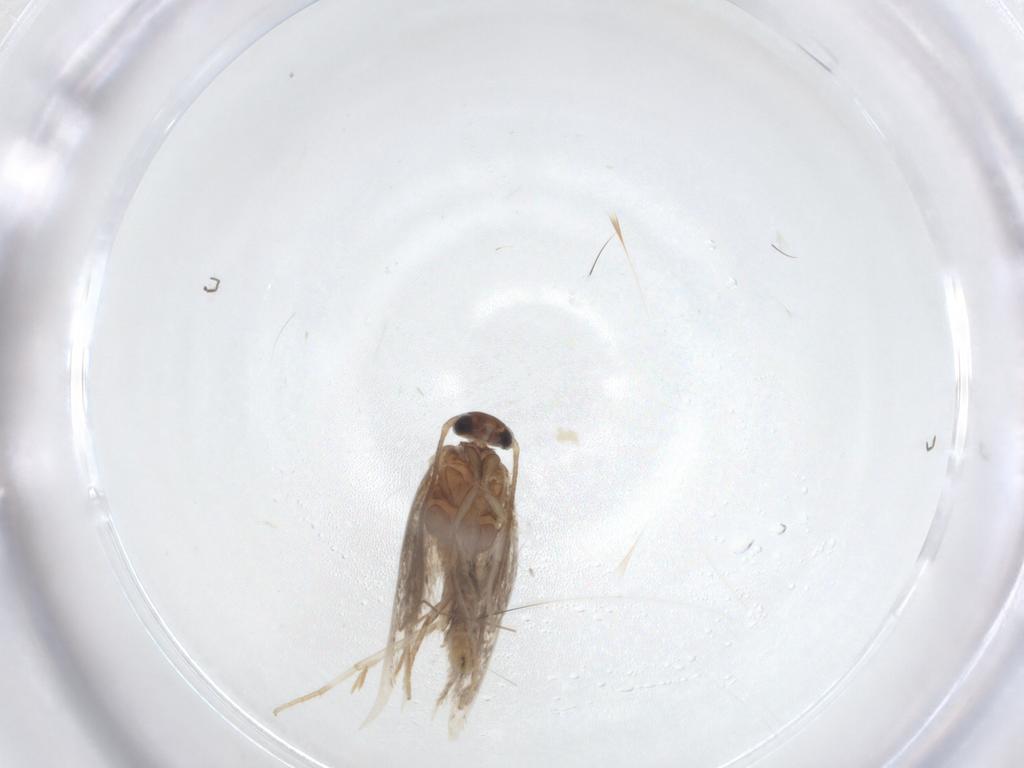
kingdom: Animalia
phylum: Arthropoda
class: Insecta
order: Lepidoptera
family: Elachistidae
